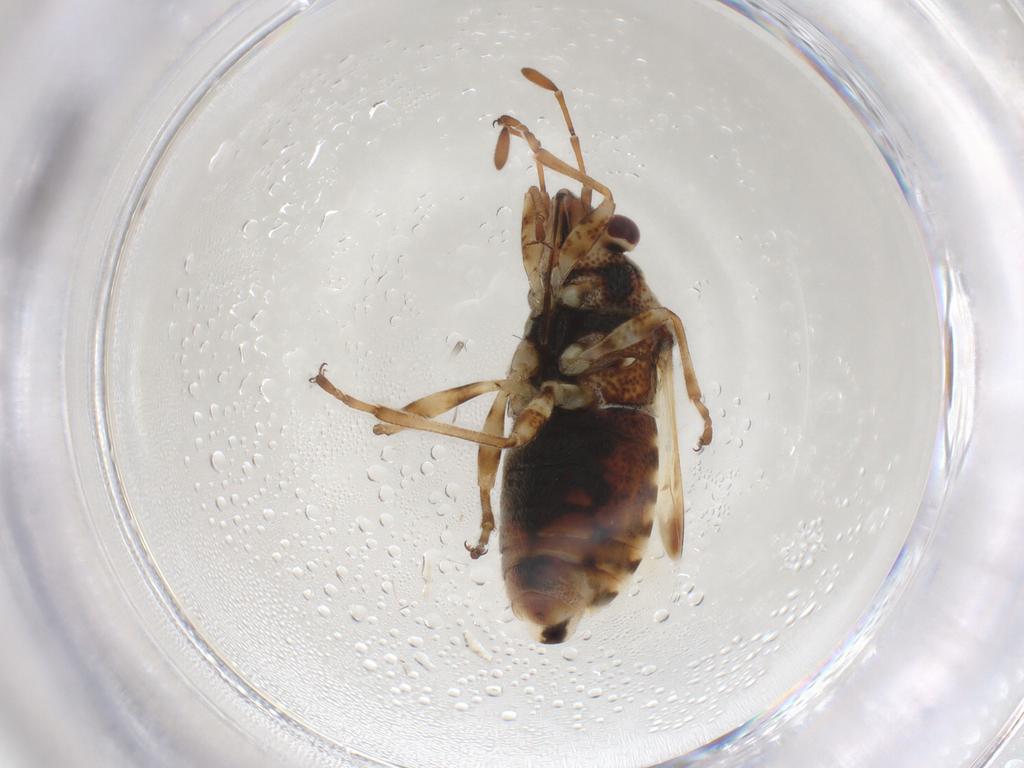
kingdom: Animalia
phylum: Arthropoda
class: Insecta
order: Hemiptera
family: Lygaeidae
